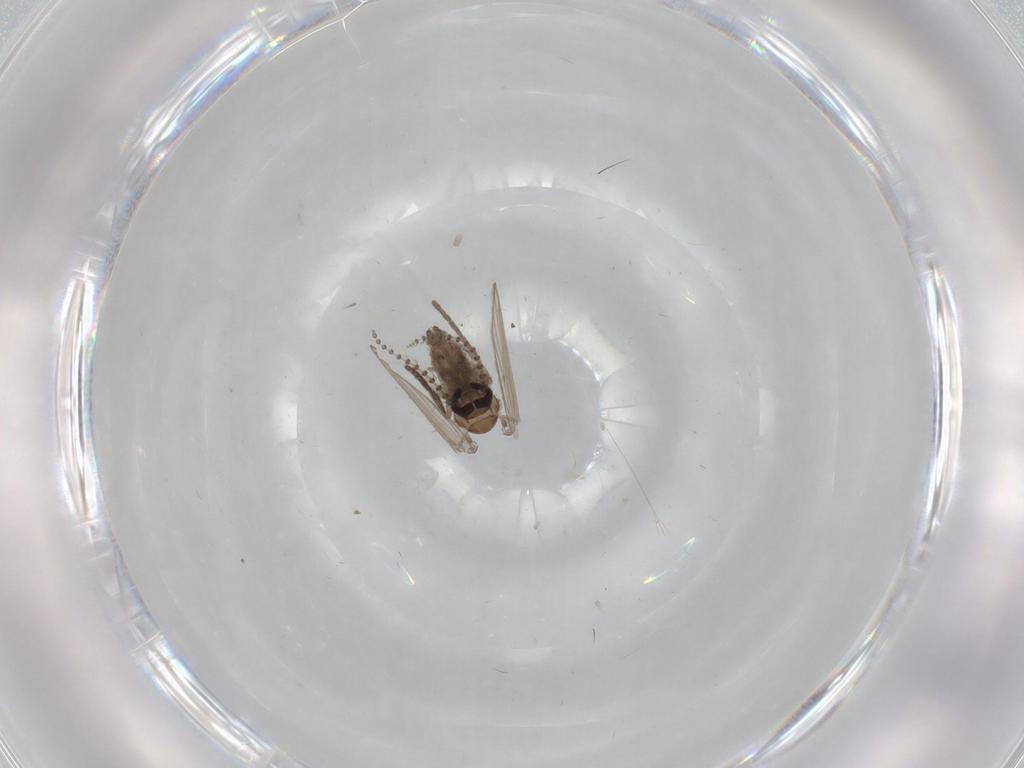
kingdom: Animalia
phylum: Arthropoda
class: Insecta
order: Diptera
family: Psychodidae
